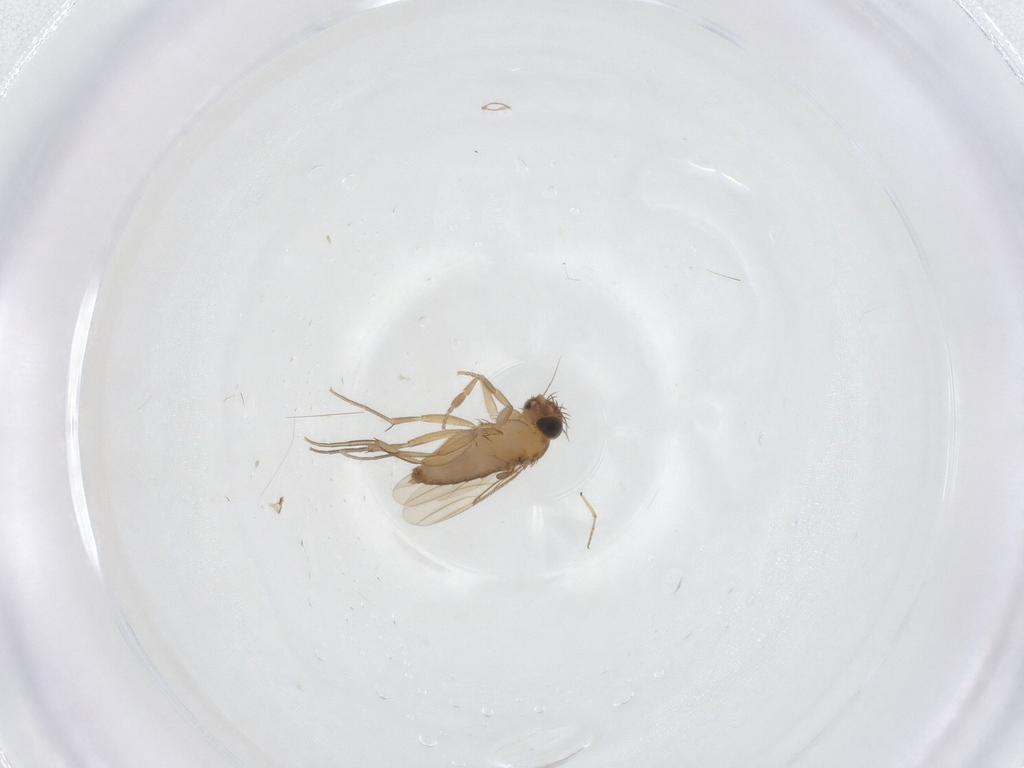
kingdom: Animalia
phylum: Arthropoda
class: Insecta
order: Diptera
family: Phoridae
